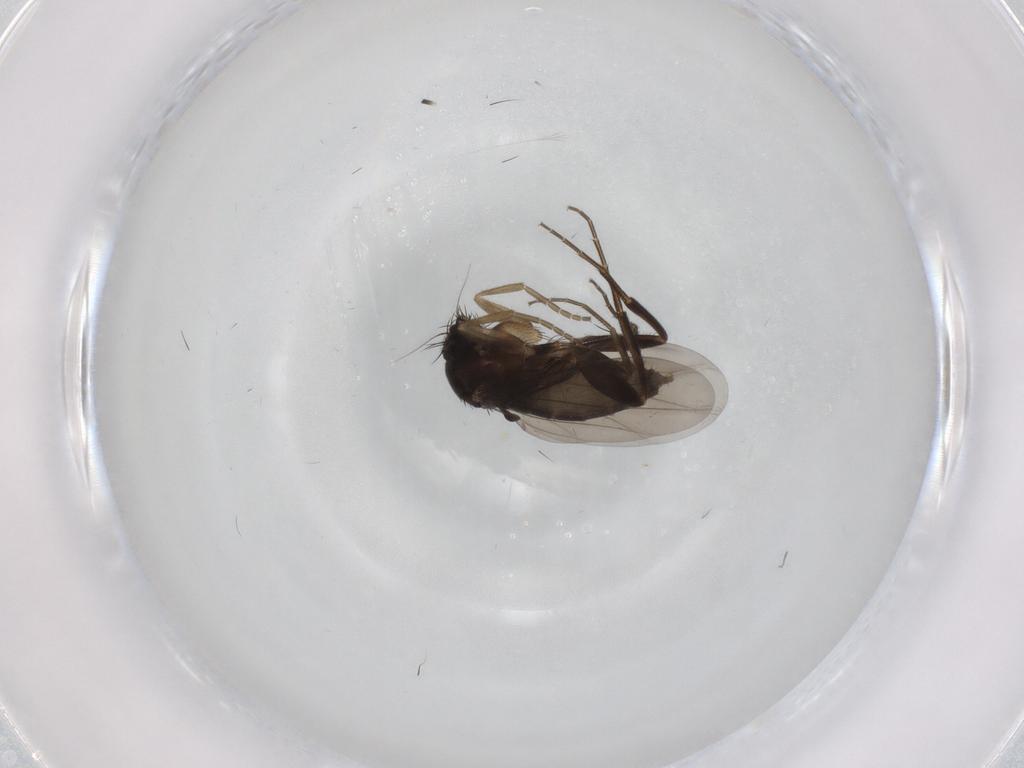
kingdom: Animalia
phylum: Arthropoda
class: Insecta
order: Diptera
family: Phoridae
